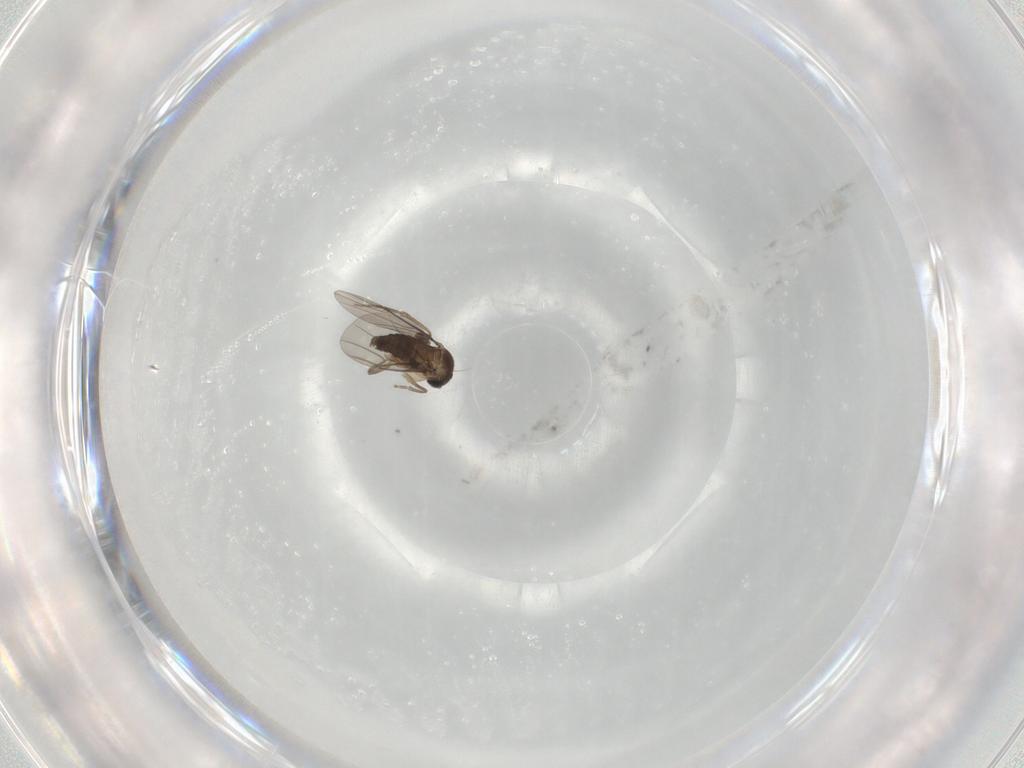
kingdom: Animalia
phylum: Arthropoda
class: Insecta
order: Diptera
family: Phoridae
